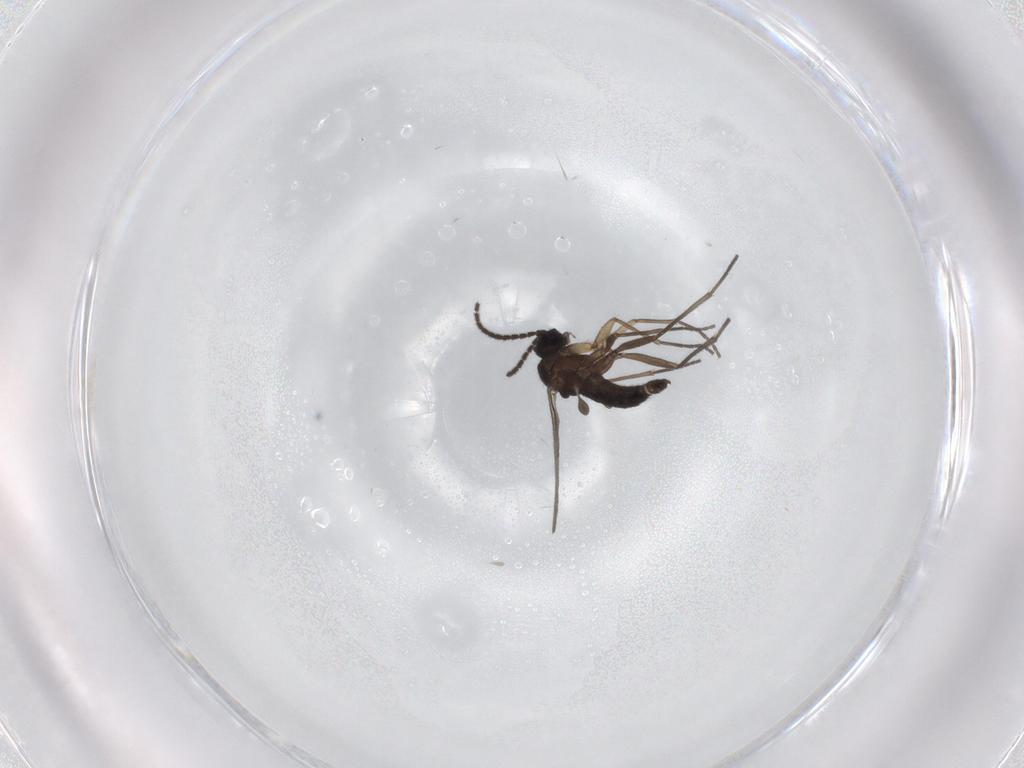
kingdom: Animalia
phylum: Arthropoda
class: Insecta
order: Diptera
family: Sciaridae
